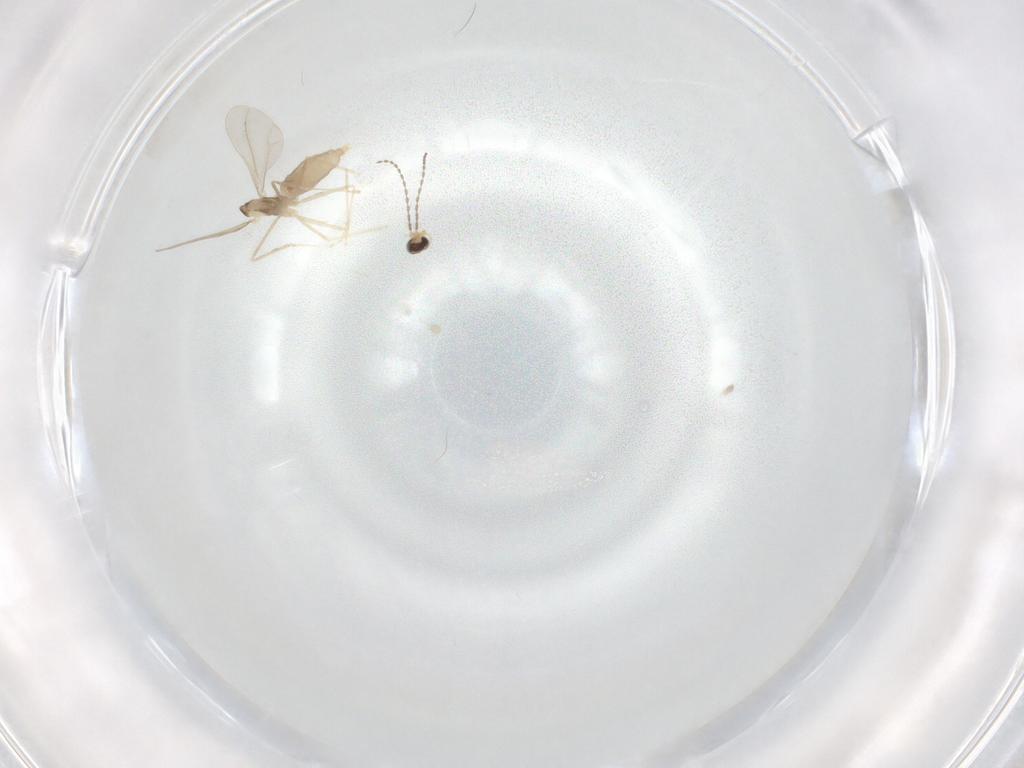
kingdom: Animalia
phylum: Arthropoda
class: Insecta
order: Diptera
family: Cecidomyiidae
